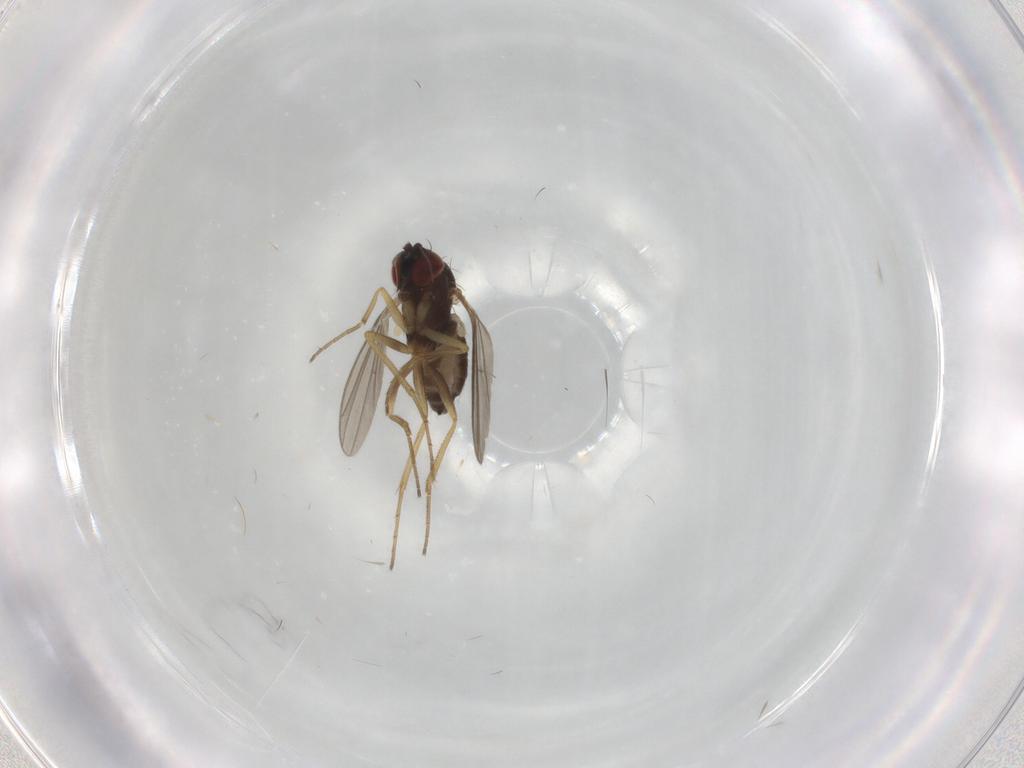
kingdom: Animalia
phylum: Arthropoda
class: Insecta
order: Diptera
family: Dolichopodidae
